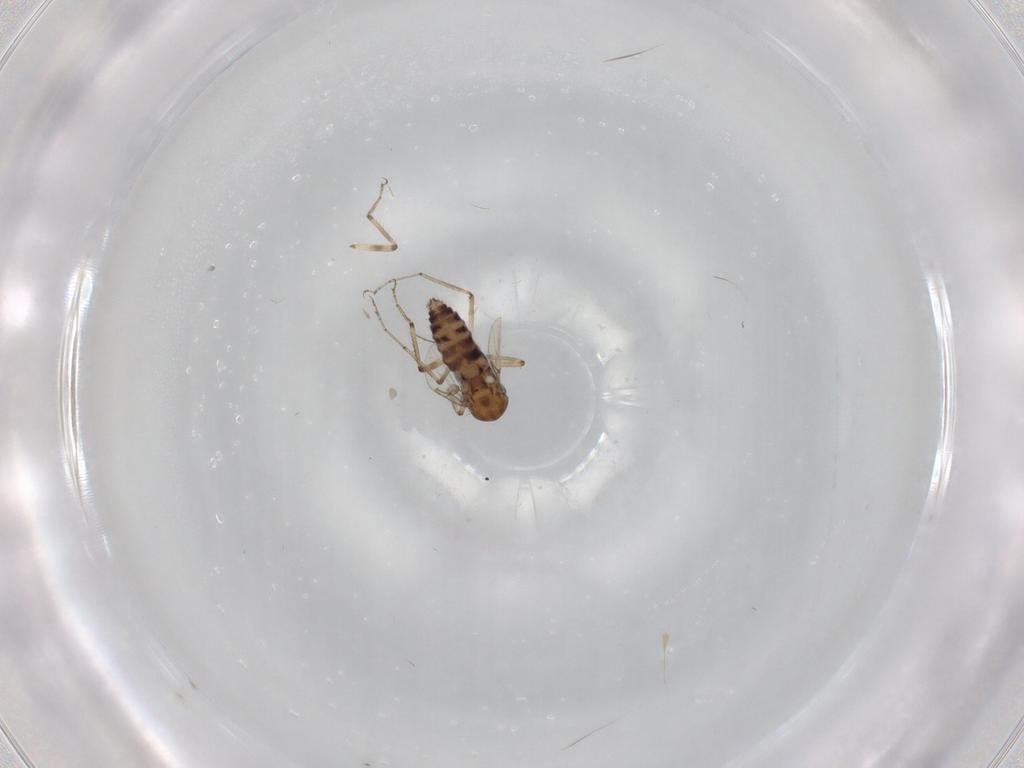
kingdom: Animalia
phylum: Arthropoda
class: Insecta
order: Diptera
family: Ceratopogonidae
